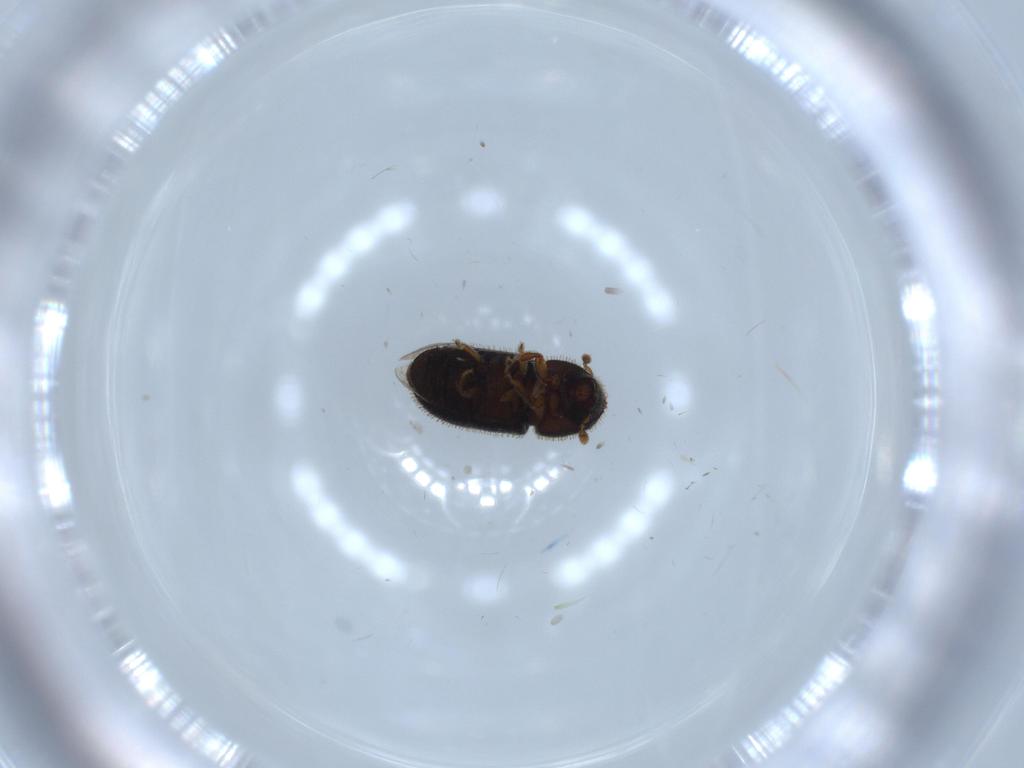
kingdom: Animalia
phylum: Arthropoda
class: Insecta
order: Coleoptera
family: Curculionidae
